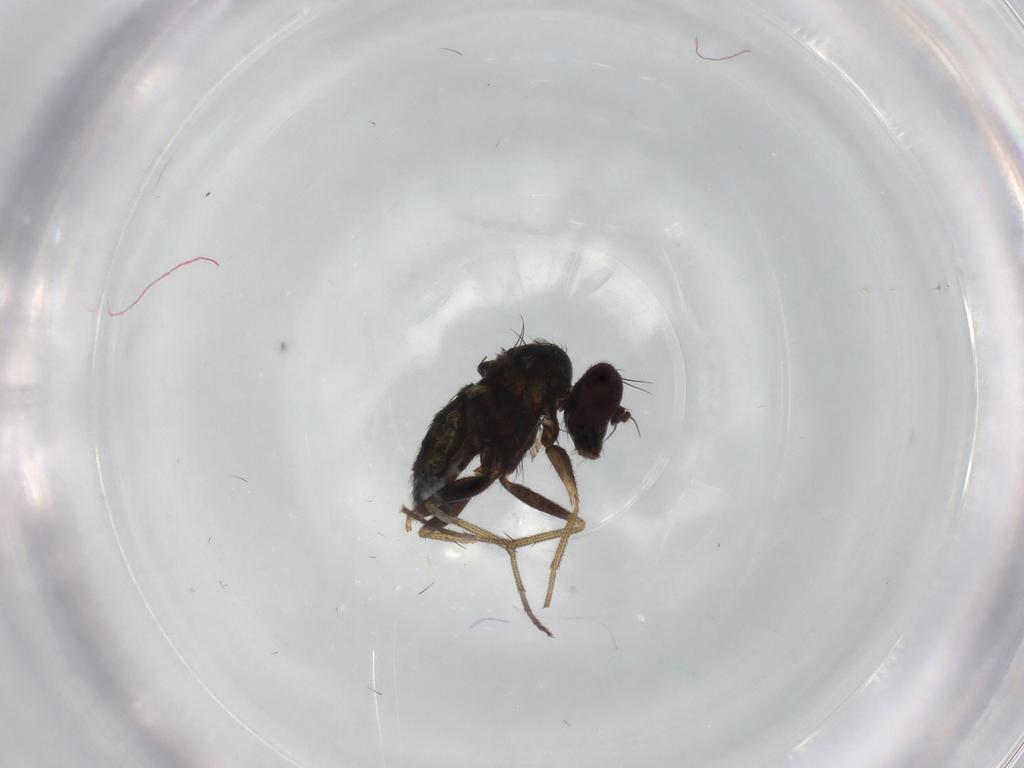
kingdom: Animalia
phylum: Arthropoda
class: Insecta
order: Diptera
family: Dolichopodidae
